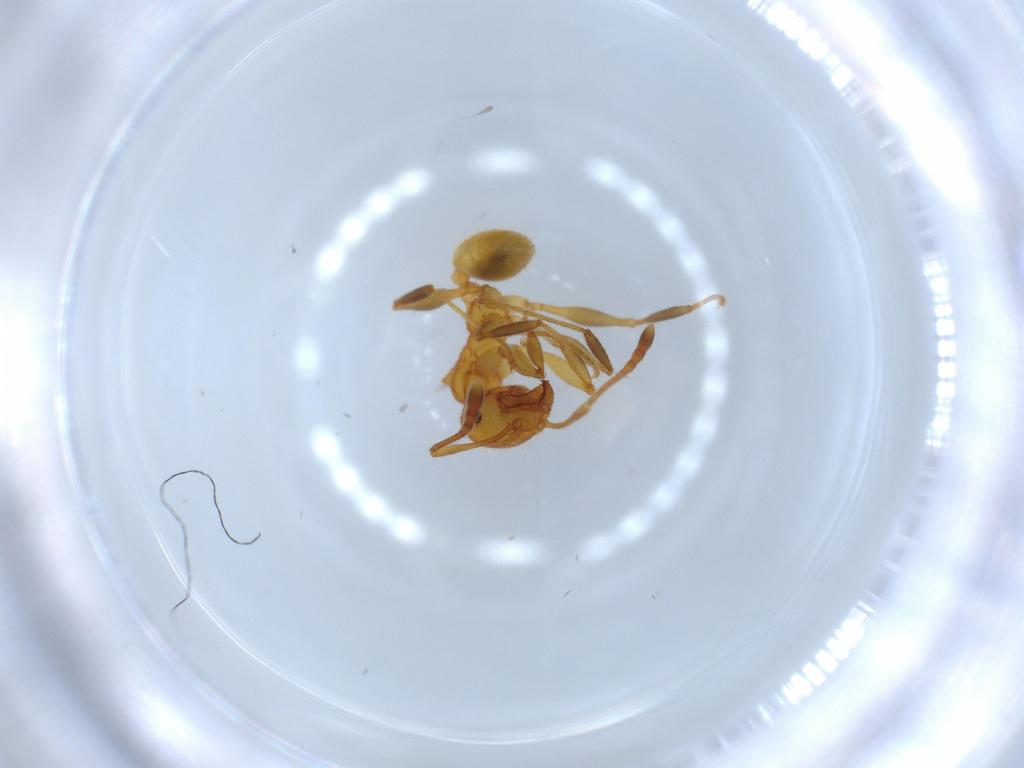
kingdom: Animalia
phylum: Arthropoda
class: Insecta
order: Hymenoptera
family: Formicidae
